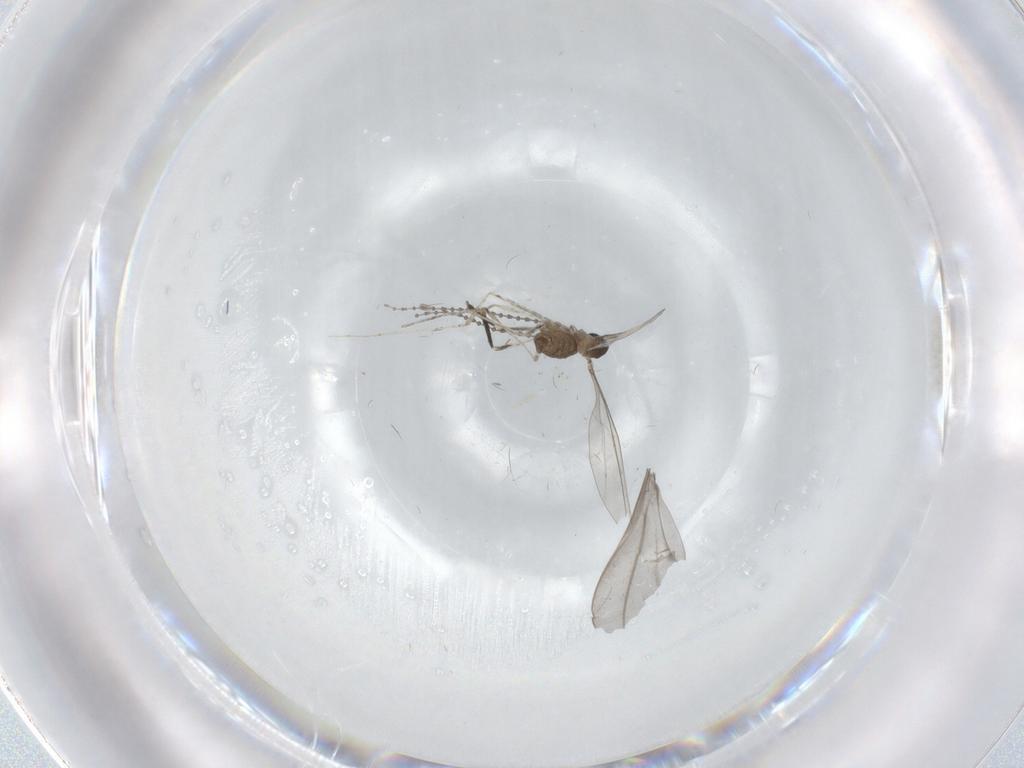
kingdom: Animalia
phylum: Arthropoda
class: Insecta
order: Diptera
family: Cecidomyiidae
